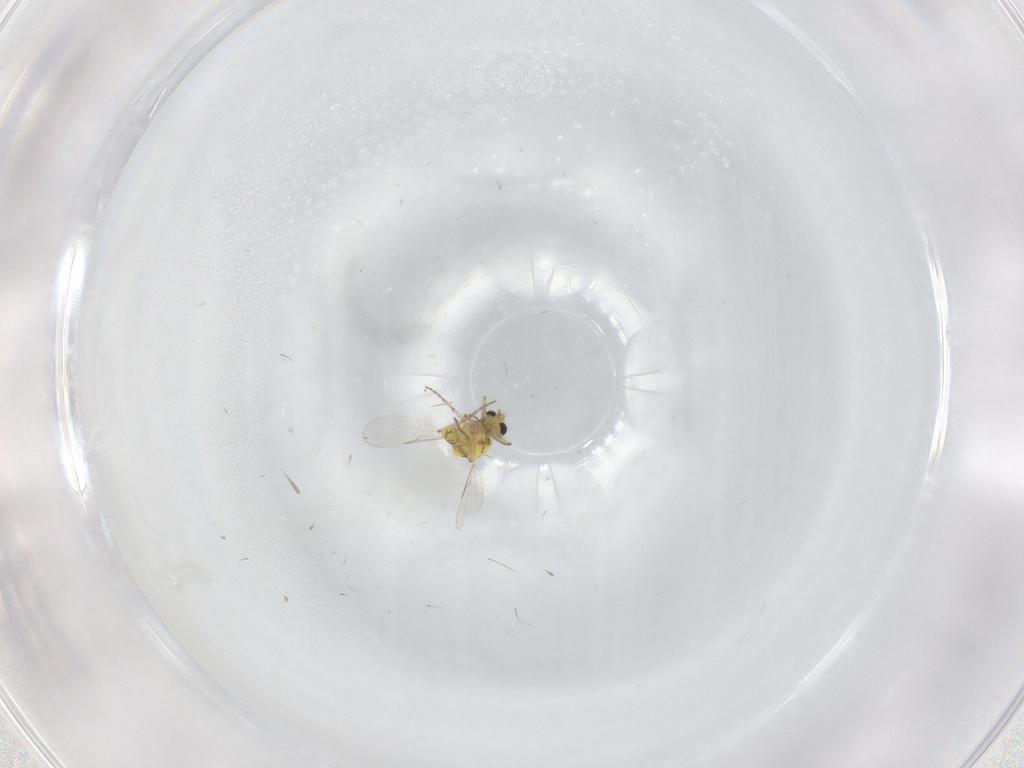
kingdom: Animalia
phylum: Arthropoda
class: Insecta
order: Diptera
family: Ceratopogonidae
